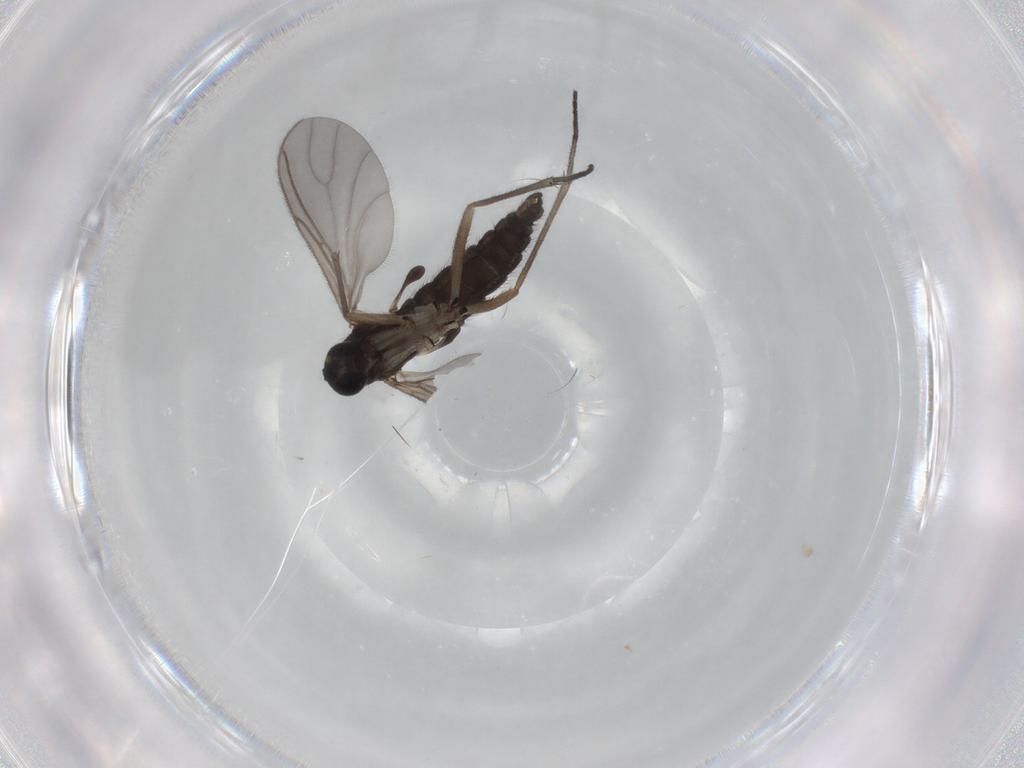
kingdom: Animalia
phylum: Arthropoda
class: Insecta
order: Diptera
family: Sciaridae
